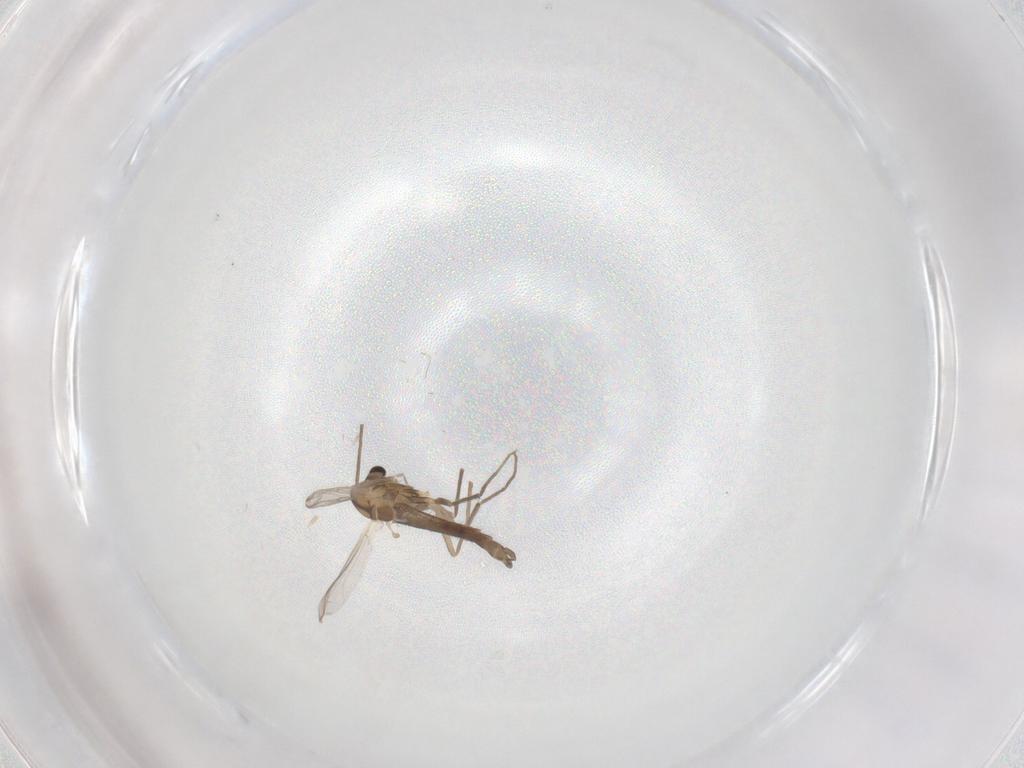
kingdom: Animalia
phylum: Arthropoda
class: Insecta
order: Diptera
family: Chironomidae
